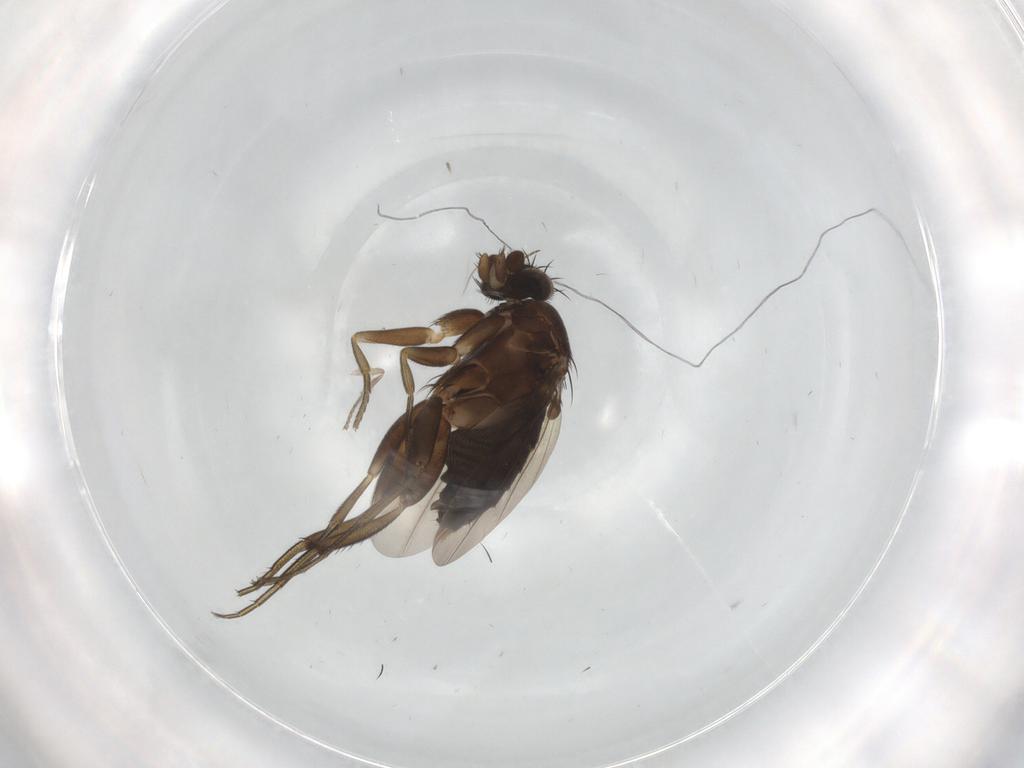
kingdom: Animalia
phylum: Arthropoda
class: Insecta
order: Diptera
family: Phoridae
